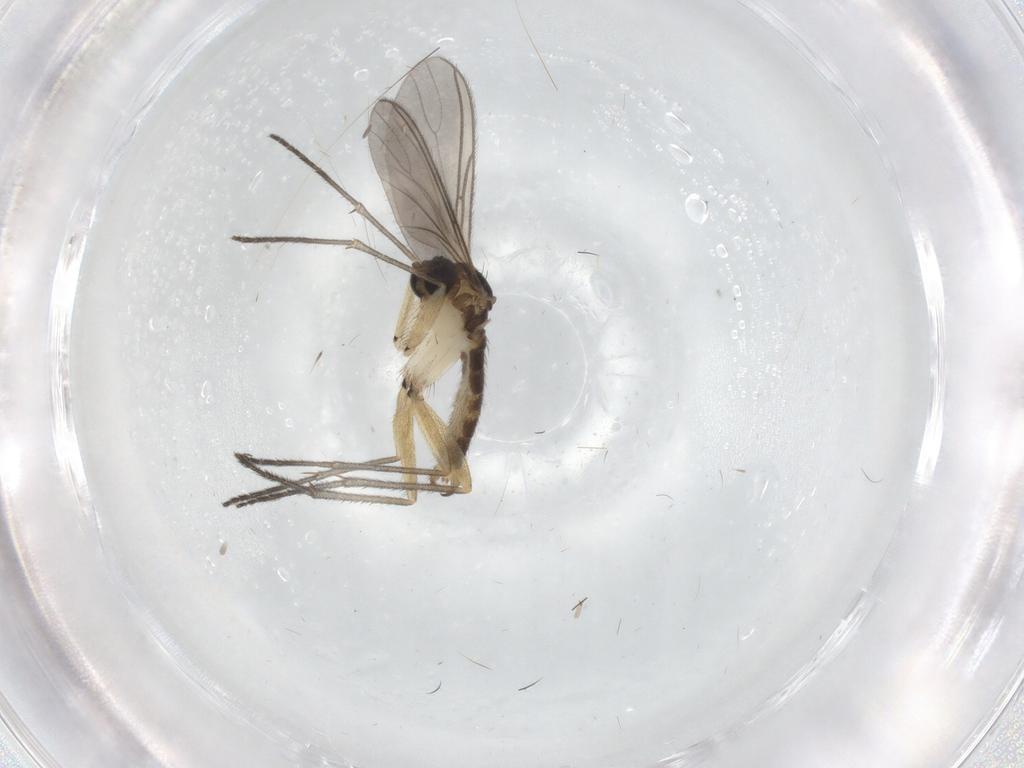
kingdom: Animalia
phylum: Arthropoda
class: Insecta
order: Diptera
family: Sciaridae
